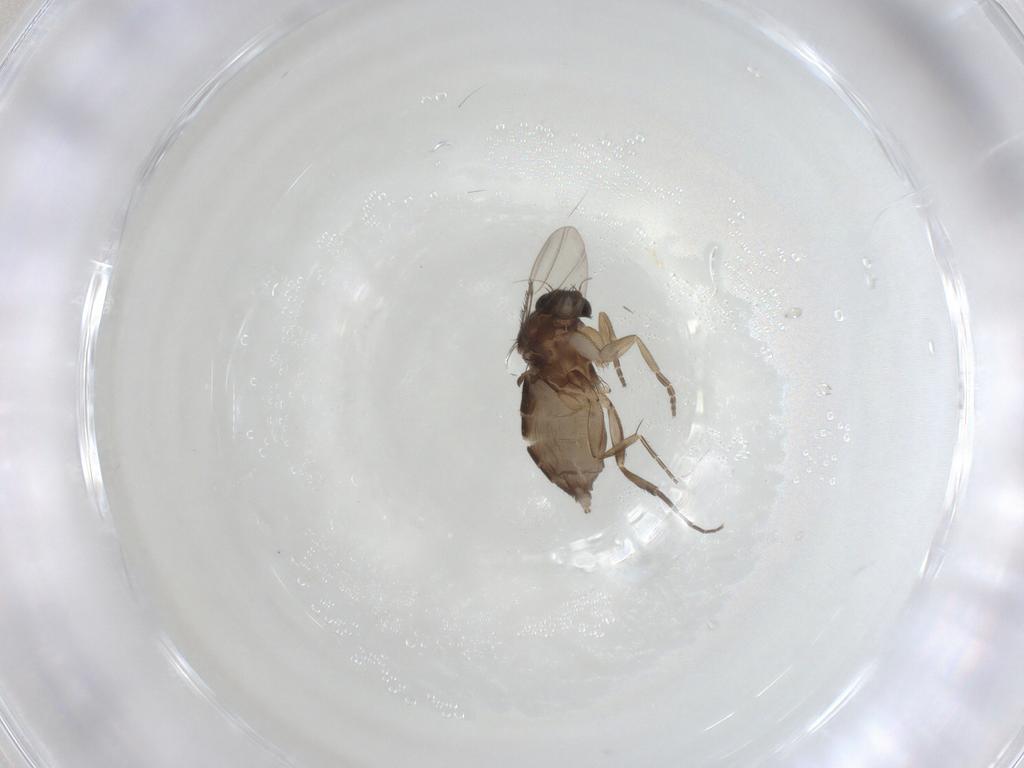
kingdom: Animalia
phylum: Arthropoda
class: Insecta
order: Diptera
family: Phoridae
